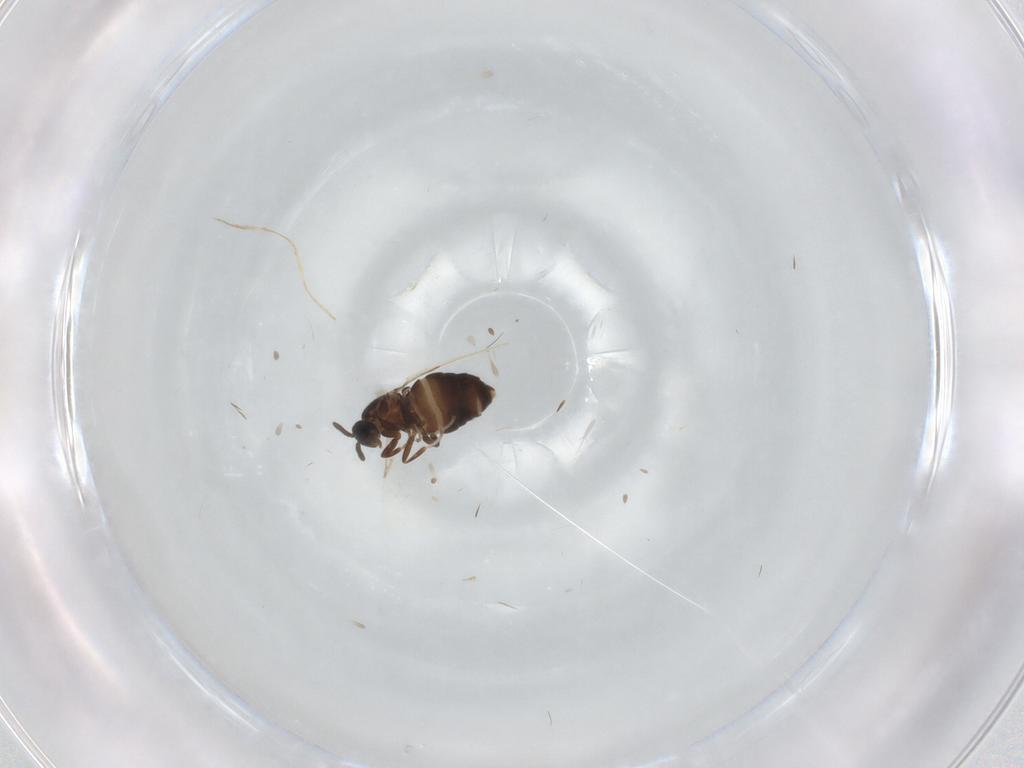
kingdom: Animalia
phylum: Arthropoda
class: Insecta
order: Diptera
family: Scatopsidae
